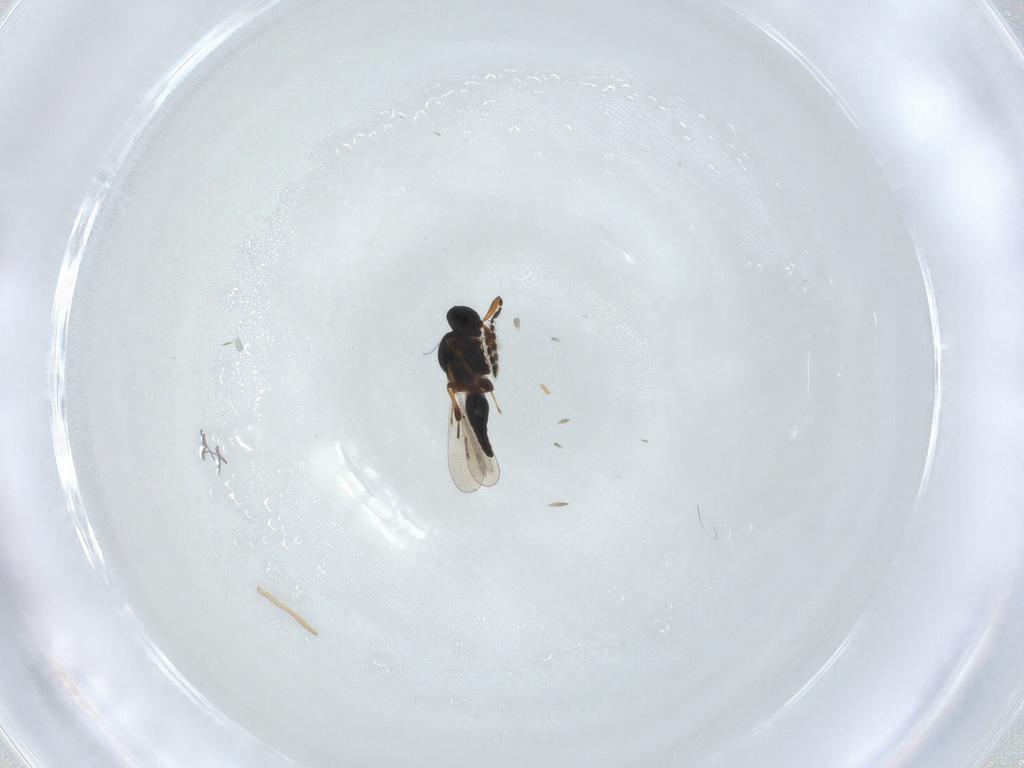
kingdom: Animalia
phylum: Arthropoda
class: Insecta
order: Hymenoptera
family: Platygastridae
